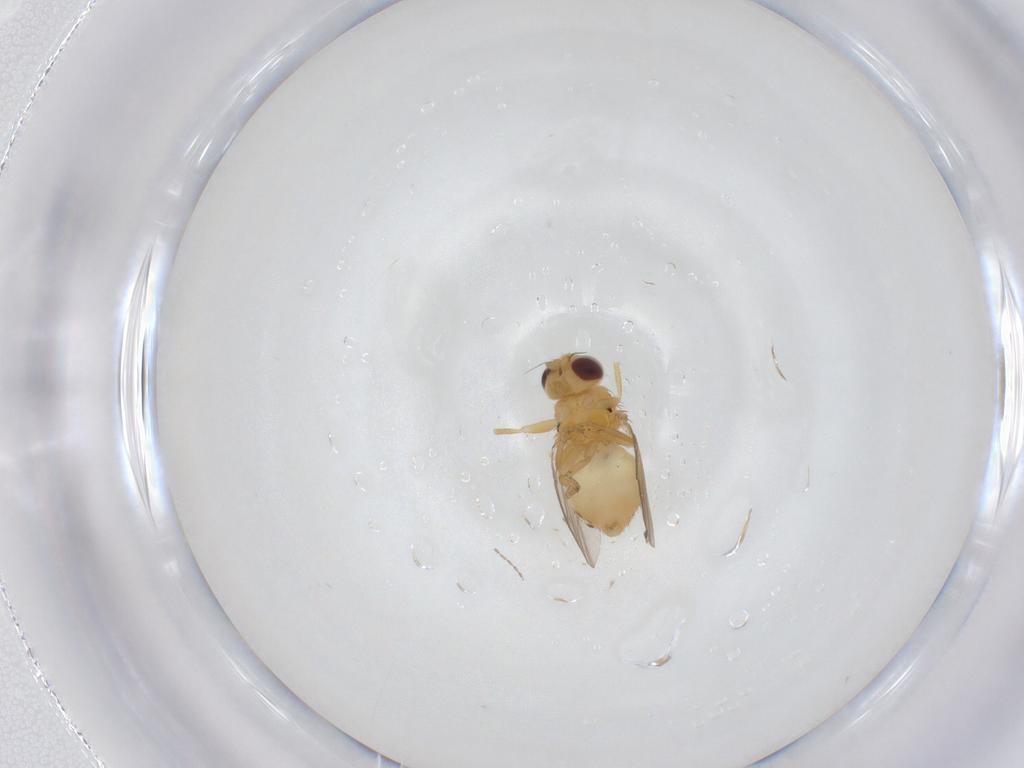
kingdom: Animalia
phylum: Arthropoda
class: Insecta
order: Diptera
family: Chloropidae
